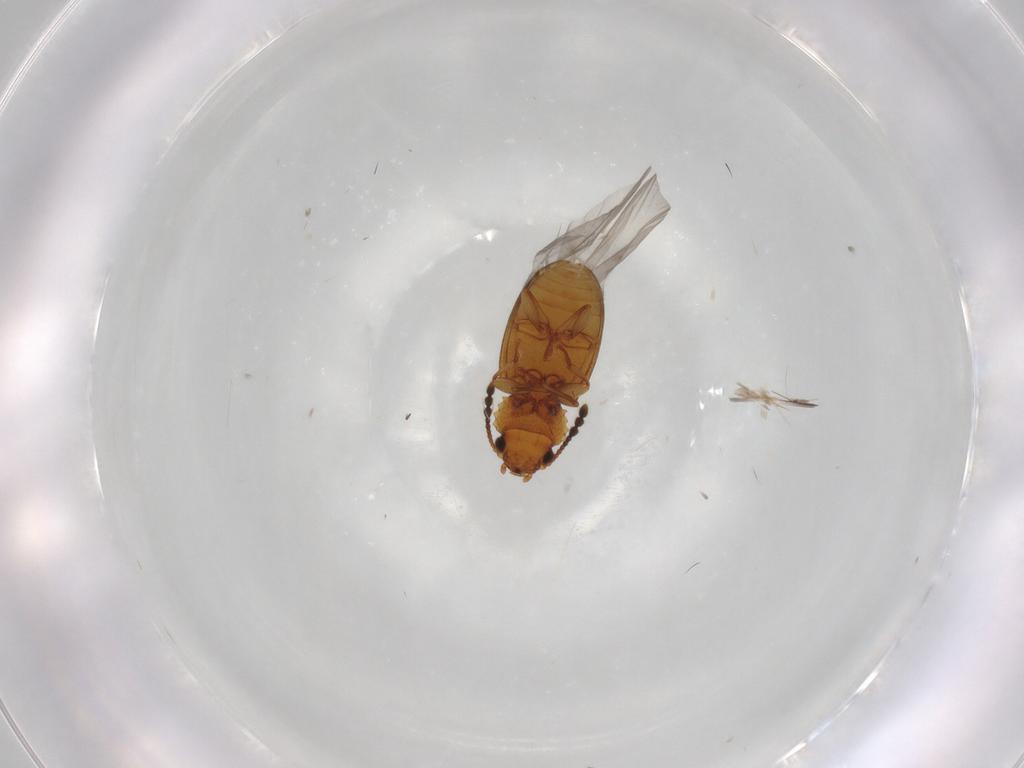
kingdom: Animalia
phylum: Arthropoda
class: Insecta
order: Coleoptera
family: Salpingidae
